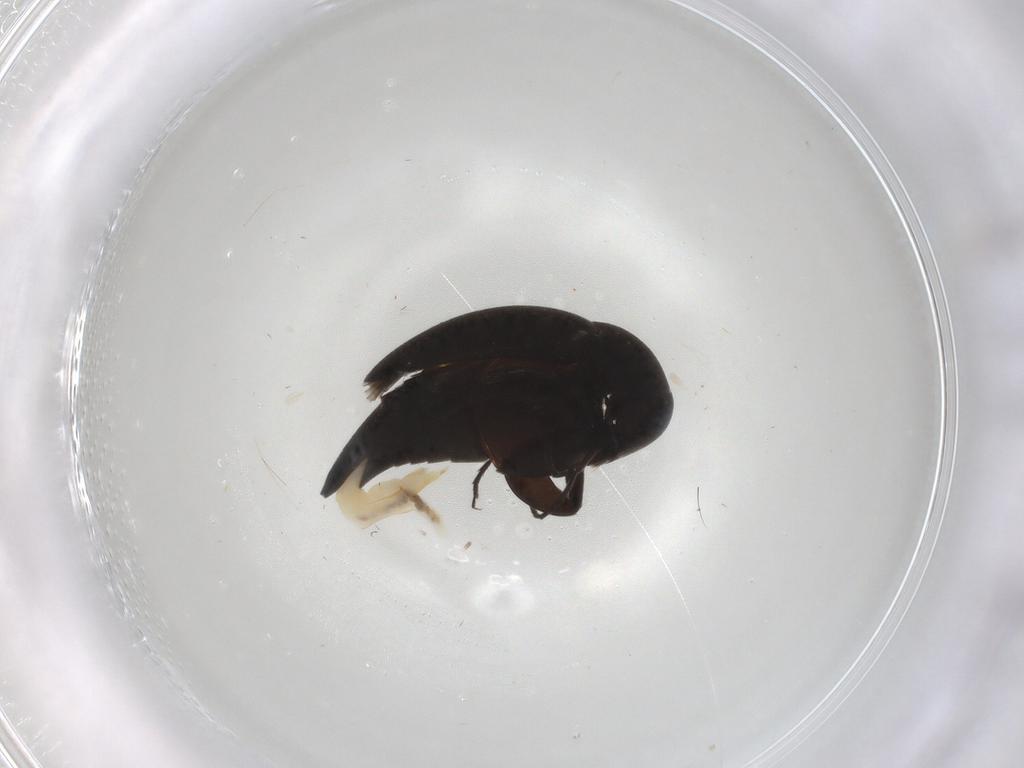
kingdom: Animalia
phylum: Arthropoda
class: Insecta
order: Coleoptera
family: Mordellidae
